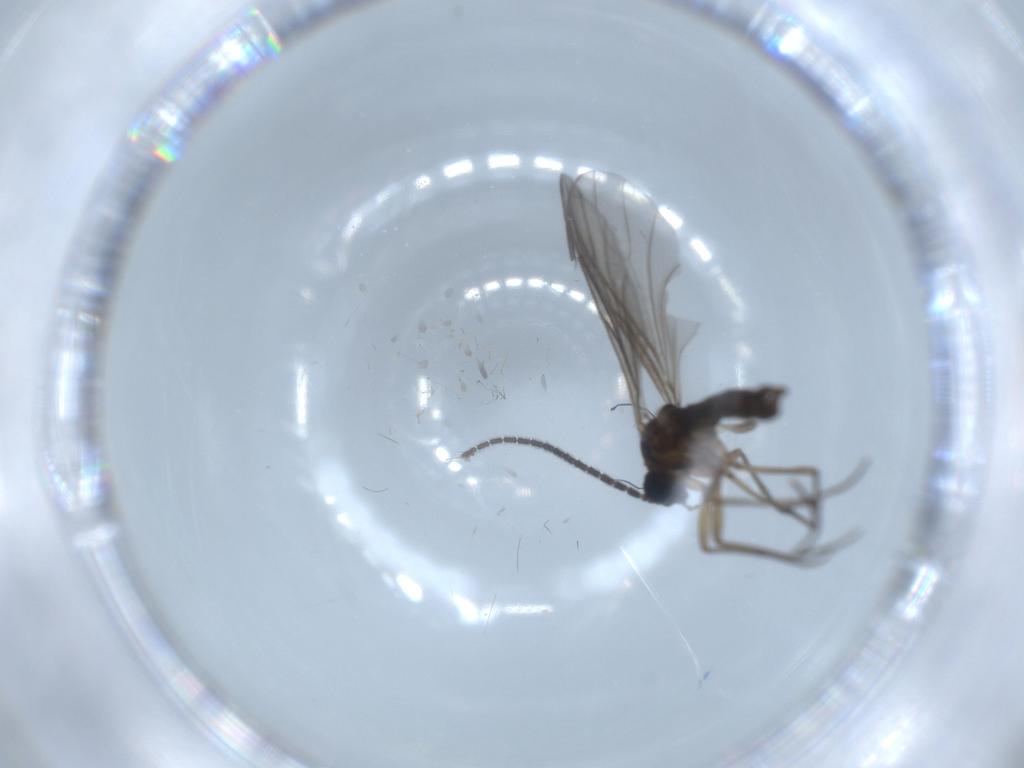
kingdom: Animalia
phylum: Arthropoda
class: Insecta
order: Diptera
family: Sciaridae
